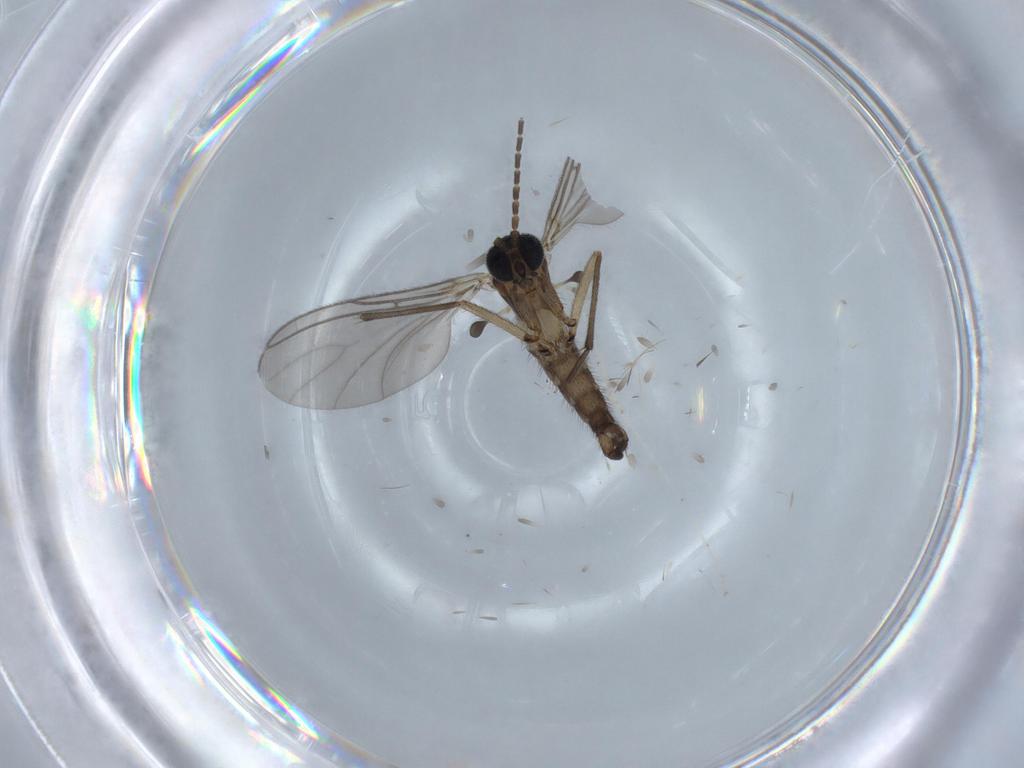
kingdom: Animalia
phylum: Arthropoda
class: Insecta
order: Diptera
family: Sciaridae
